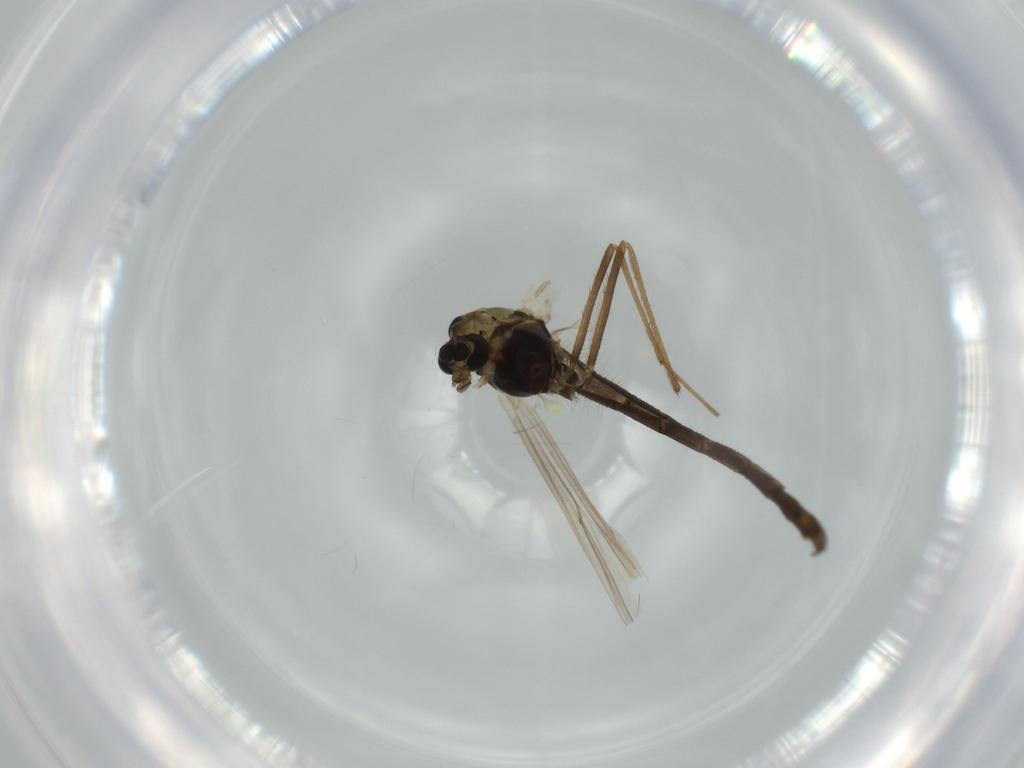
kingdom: Animalia
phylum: Arthropoda
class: Insecta
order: Diptera
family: Chironomidae
